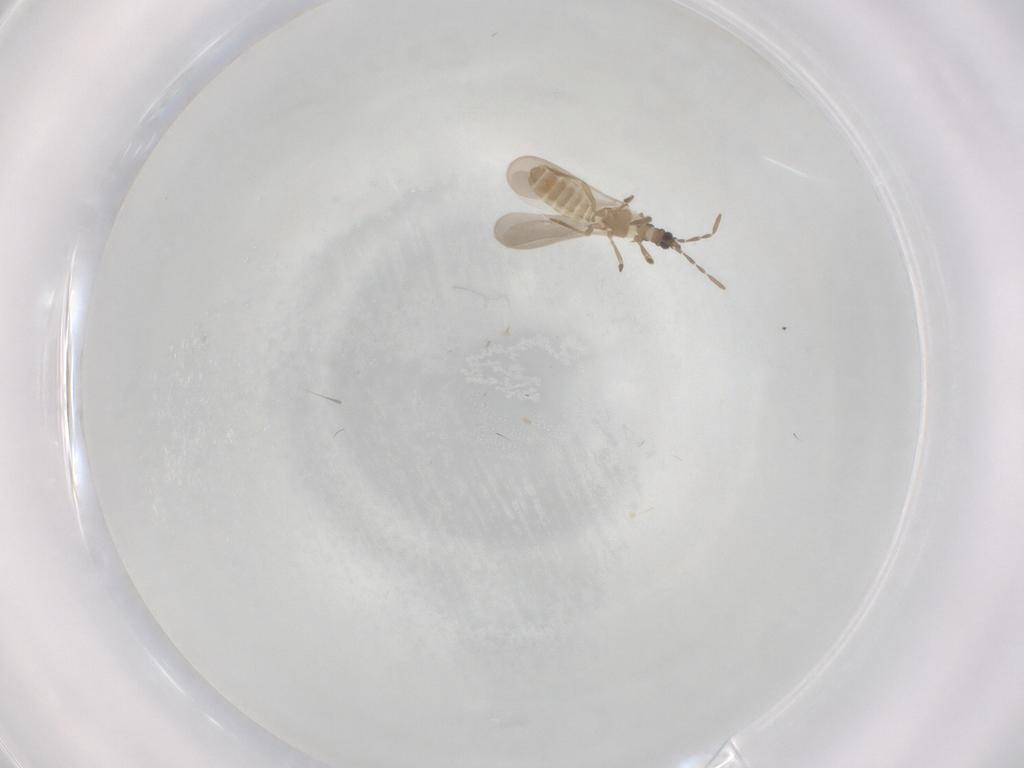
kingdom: Animalia
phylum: Arthropoda
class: Insecta
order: Hemiptera
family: Enicocephalidae
